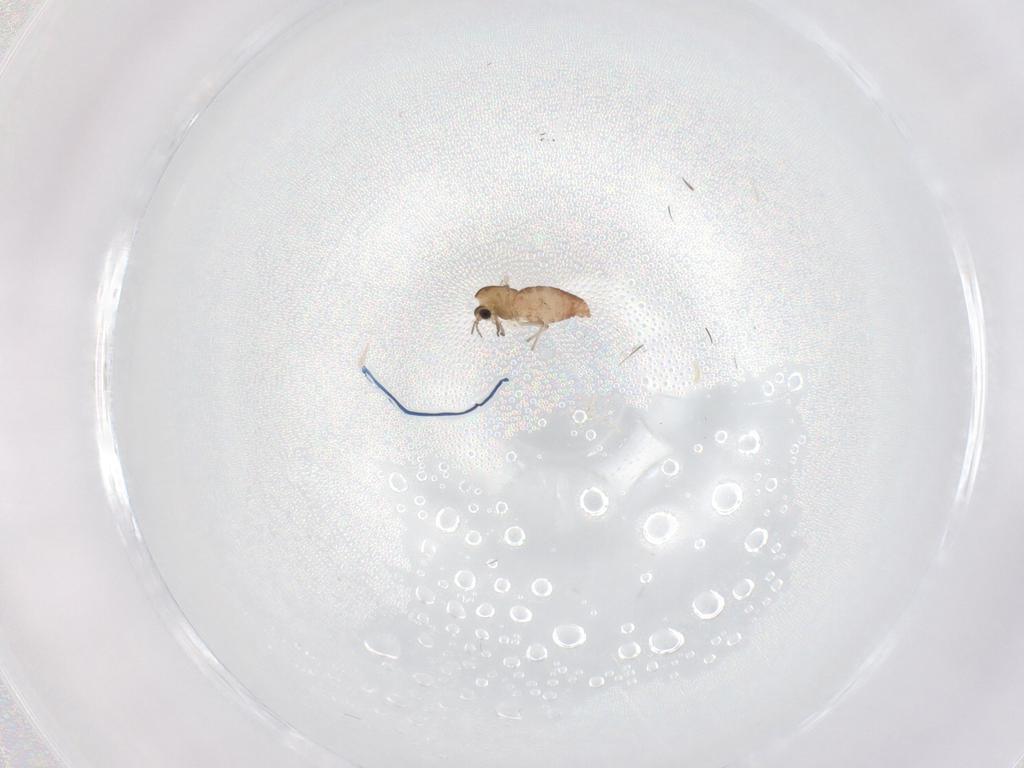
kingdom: Animalia
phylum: Arthropoda
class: Insecta
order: Diptera
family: Chironomidae
